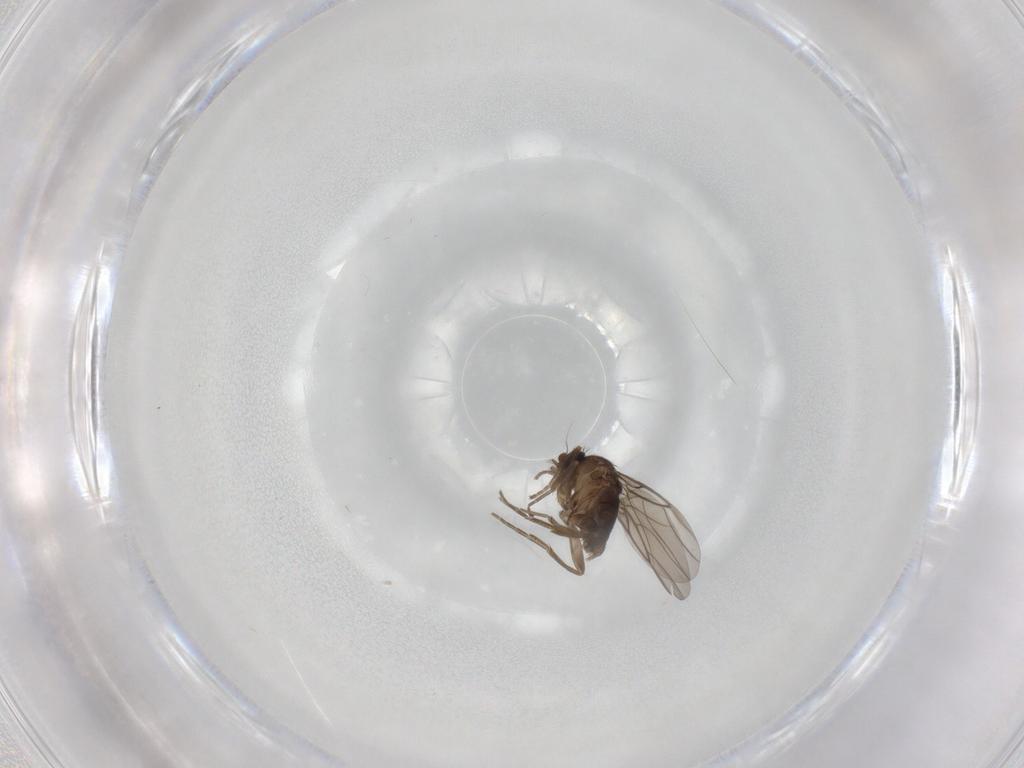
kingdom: Animalia
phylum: Arthropoda
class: Insecta
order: Diptera
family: Phoridae
